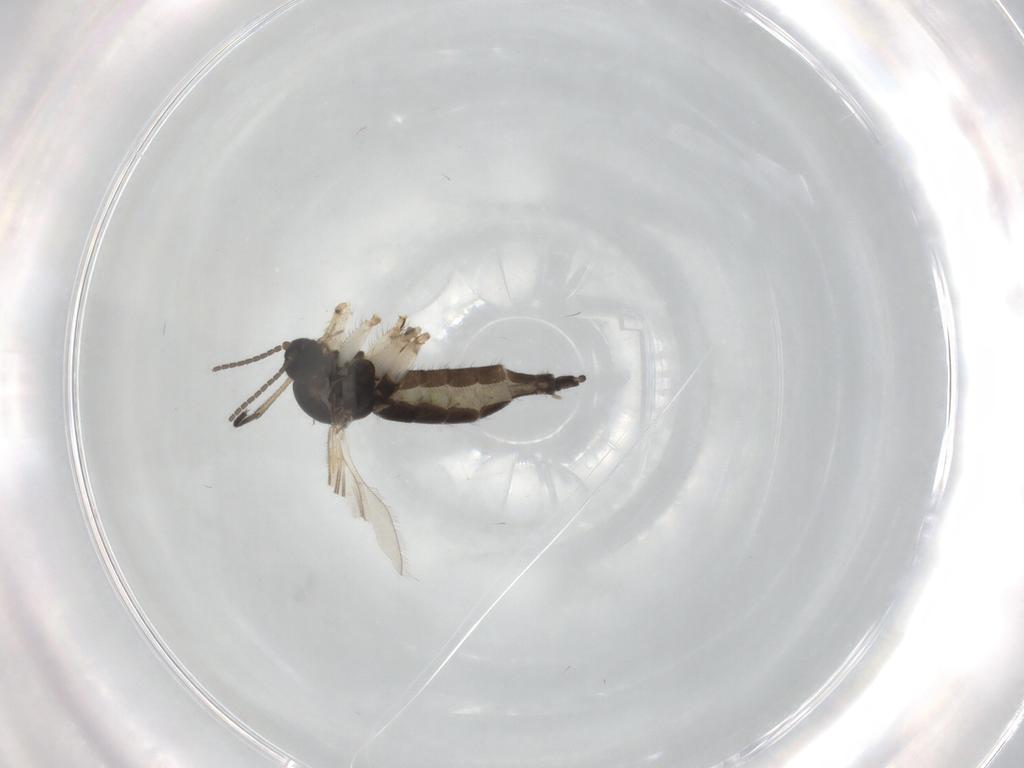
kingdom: Animalia
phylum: Arthropoda
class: Insecta
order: Diptera
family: Sciaridae
